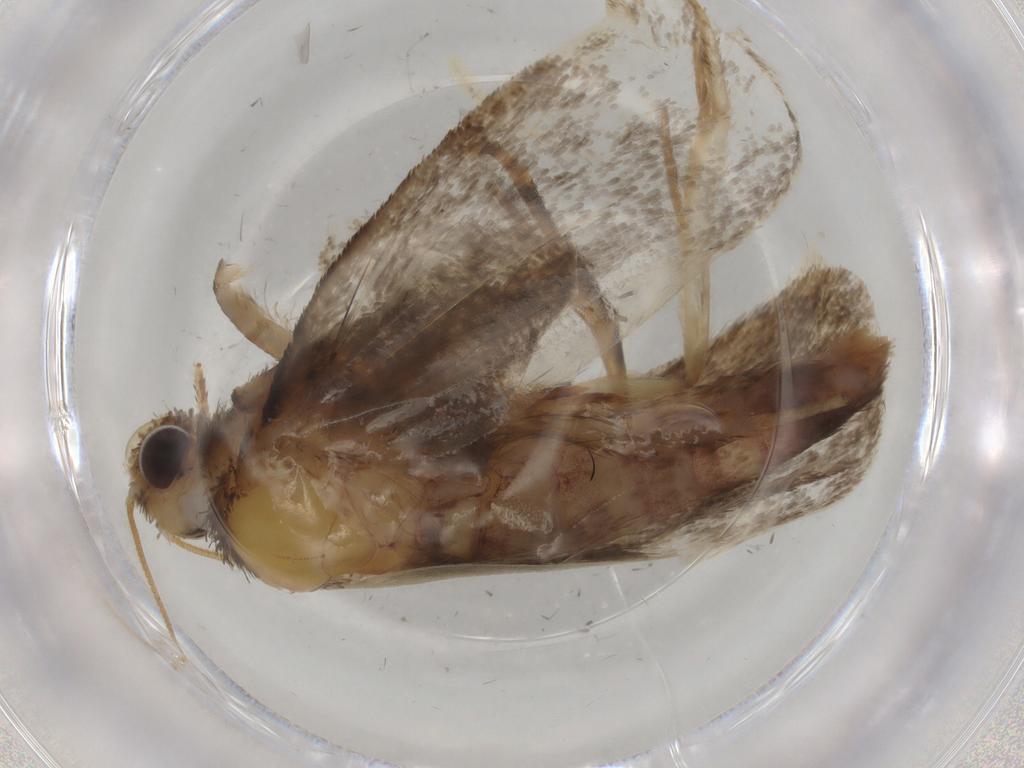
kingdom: Animalia
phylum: Arthropoda
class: Insecta
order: Lepidoptera
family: Tineidae
